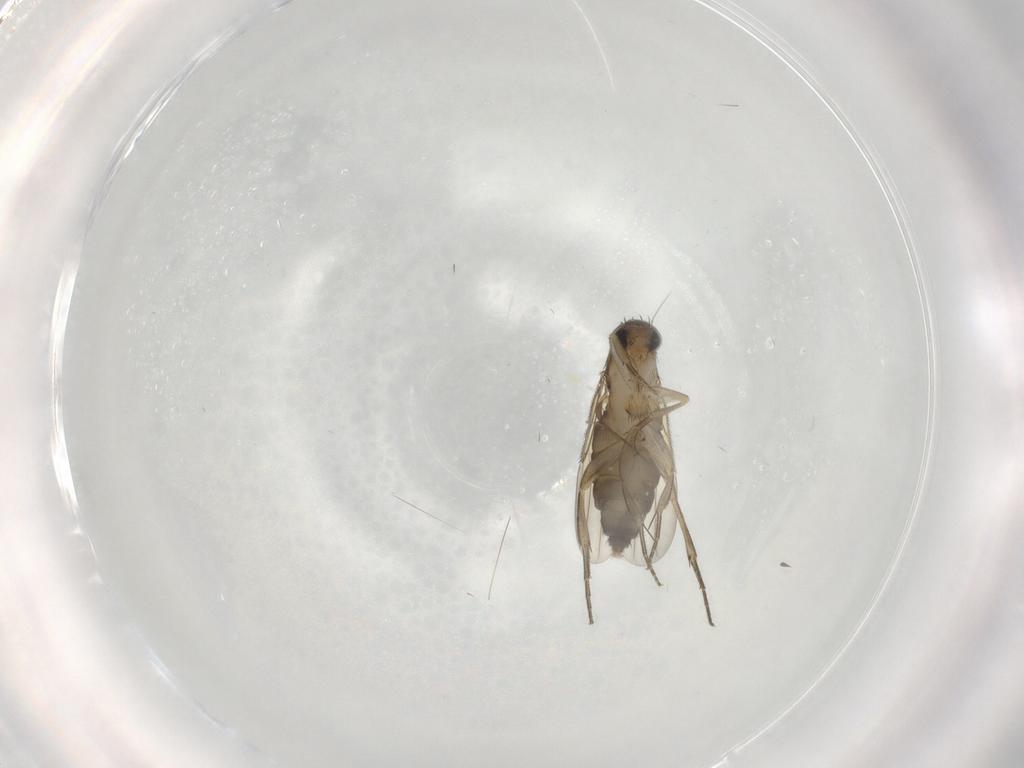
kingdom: Animalia
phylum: Arthropoda
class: Insecta
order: Diptera
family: Phoridae
